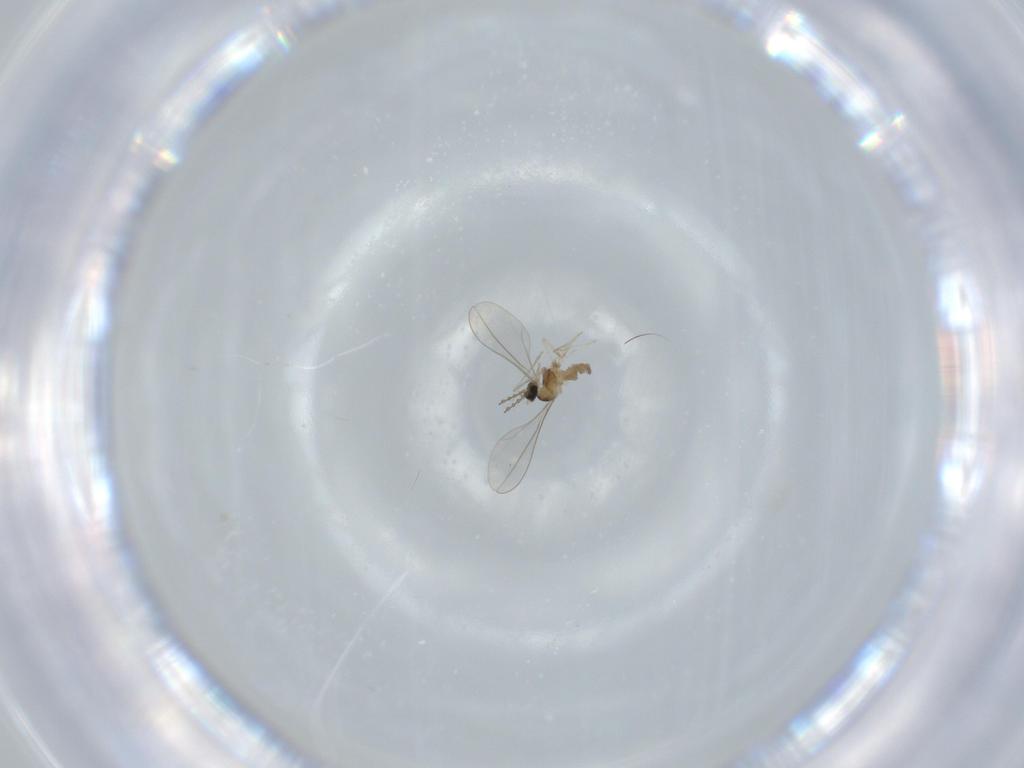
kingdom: Animalia
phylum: Arthropoda
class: Insecta
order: Diptera
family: Cecidomyiidae
